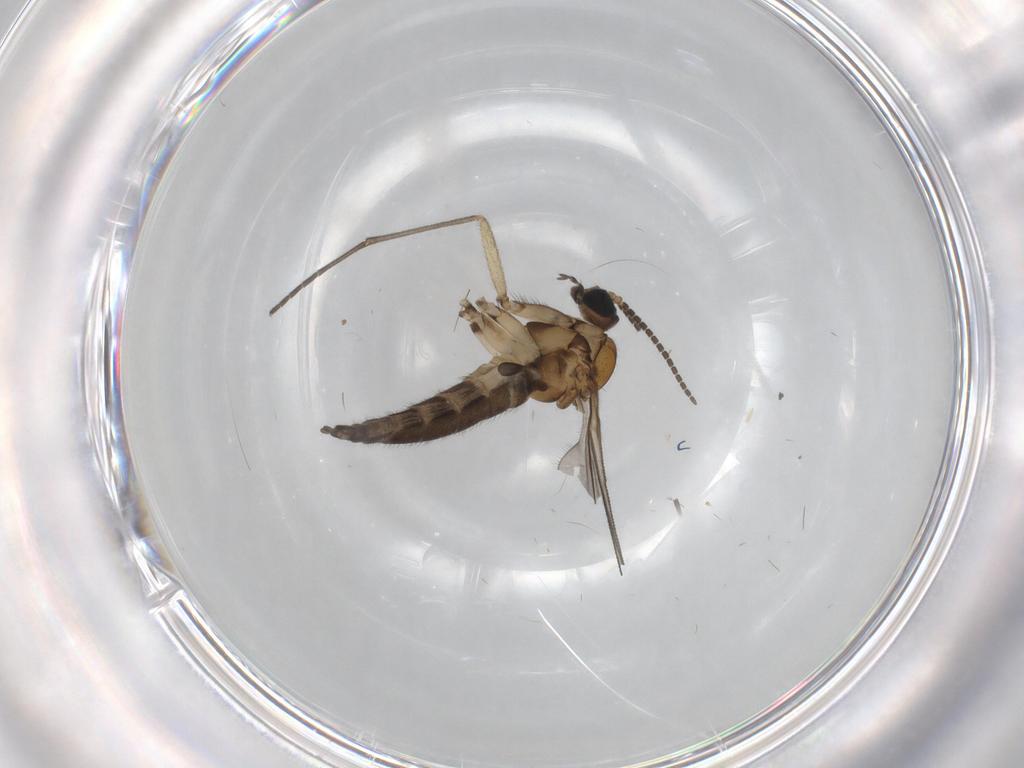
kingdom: Animalia
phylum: Arthropoda
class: Insecta
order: Diptera
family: Sciaridae
